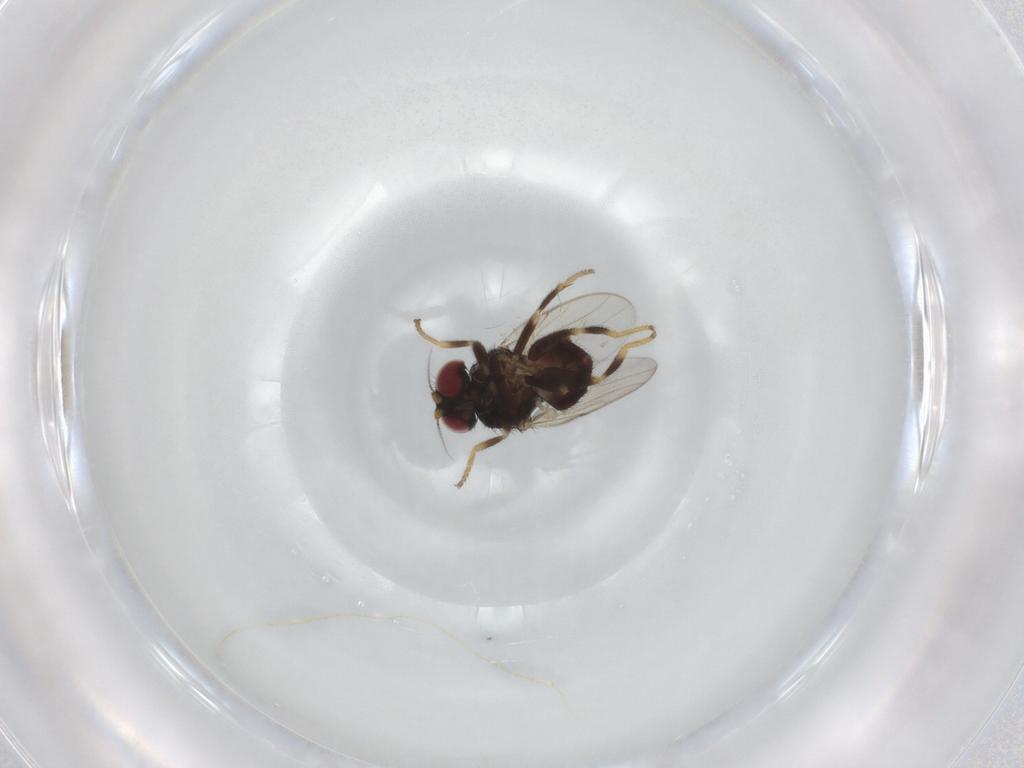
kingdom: Animalia
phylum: Arthropoda
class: Insecta
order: Diptera
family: Chloropidae
